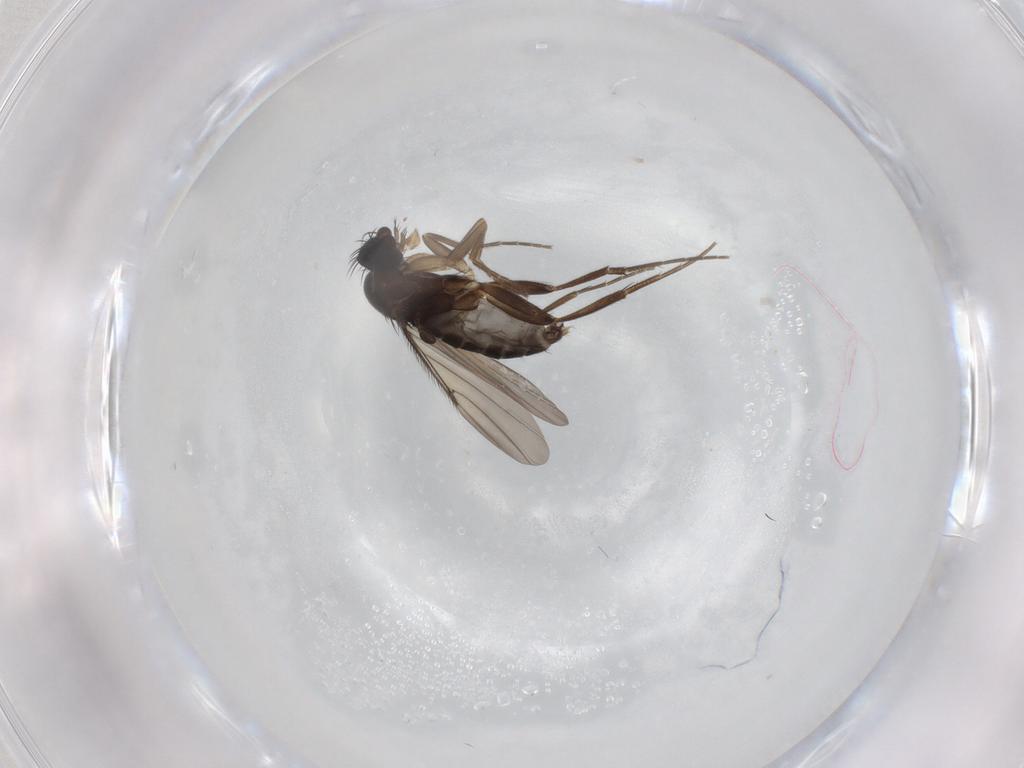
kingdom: Animalia
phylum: Arthropoda
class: Insecta
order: Diptera
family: Phoridae
